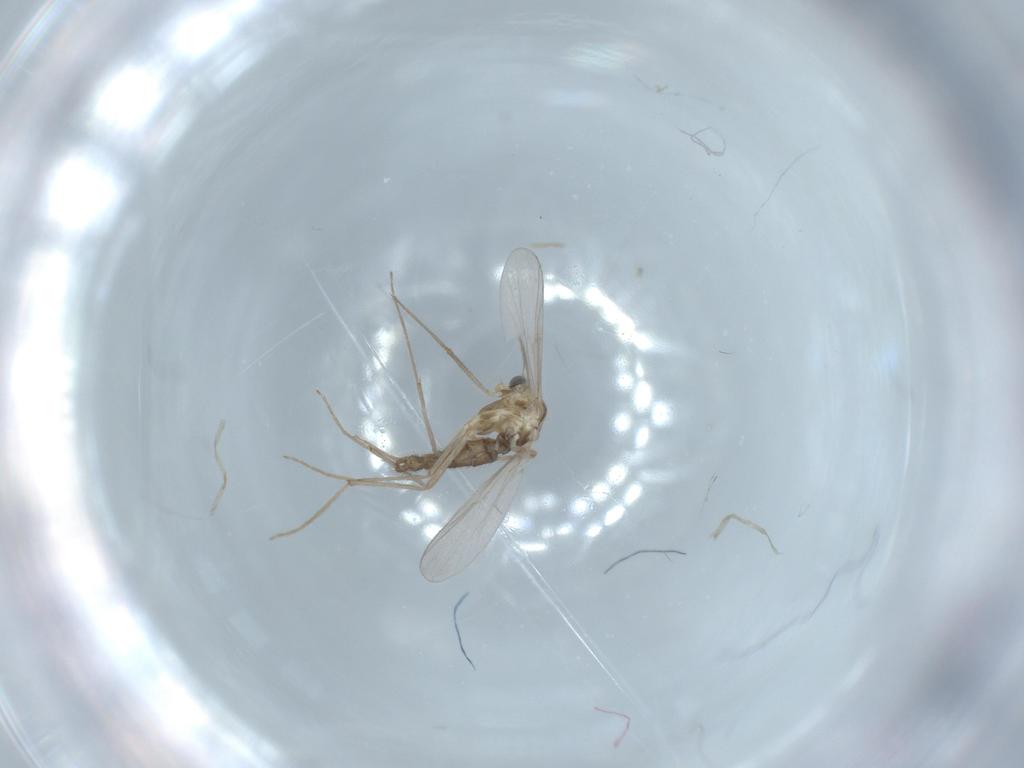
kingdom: Animalia
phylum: Arthropoda
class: Insecta
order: Diptera
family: Chironomidae
